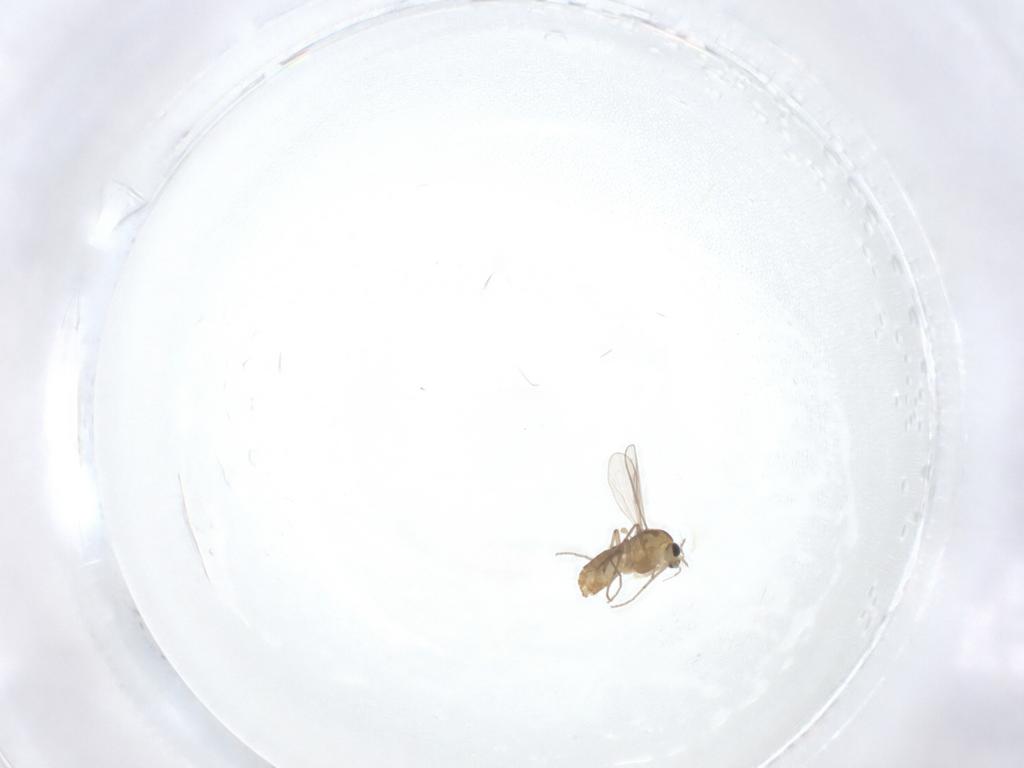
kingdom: Animalia
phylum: Arthropoda
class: Insecta
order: Diptera
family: Chironomidae
